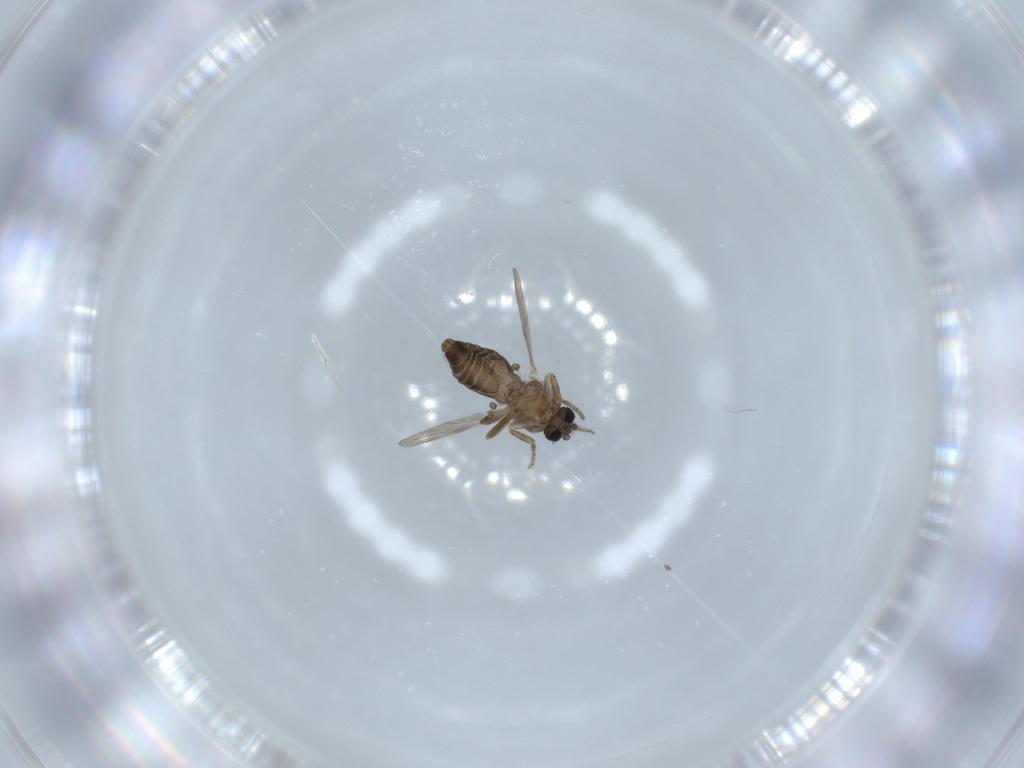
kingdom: Animalia
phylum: Arthropoda
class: Insecta
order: Diptera
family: Ceratopogonidae
